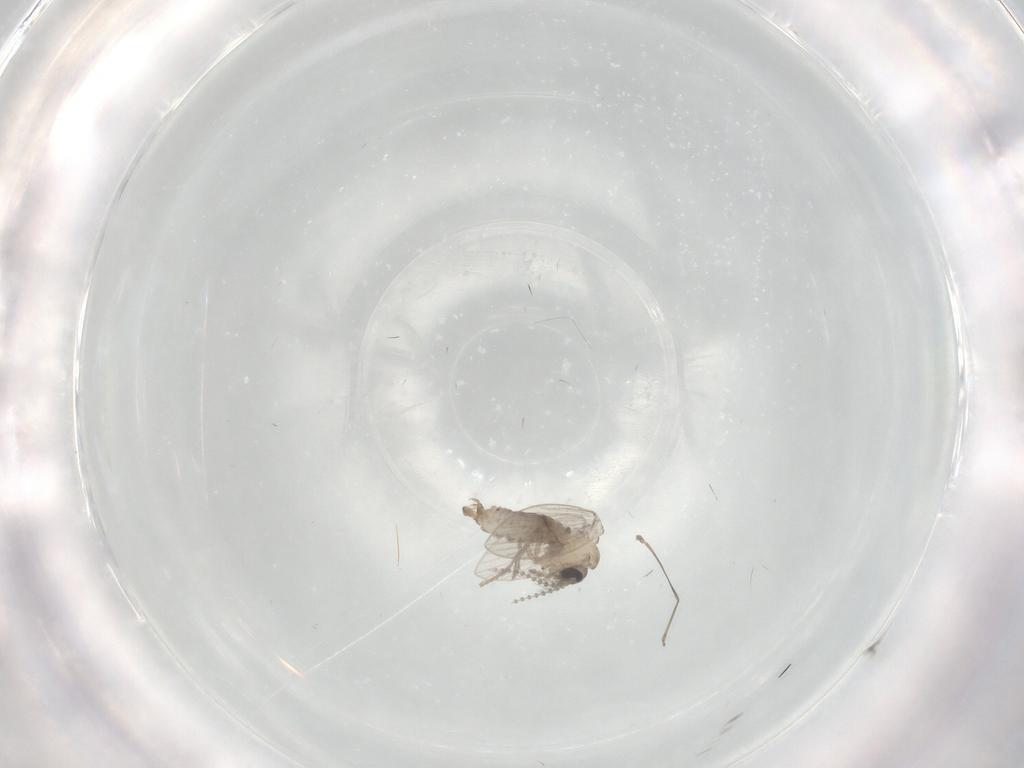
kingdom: Animalia
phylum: Arthropoda
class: Insecta
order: Diptera
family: Psychodidae
